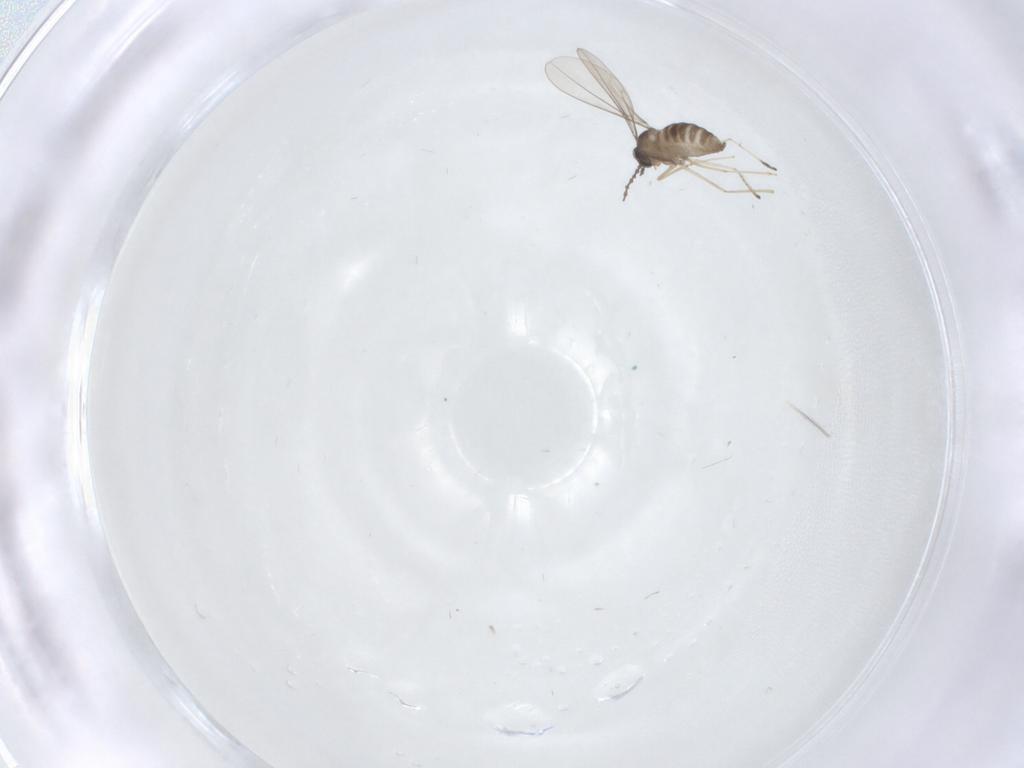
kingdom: Animalia
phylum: Arthropoda
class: Insecta
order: Diptera
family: Cecidomyiidae
